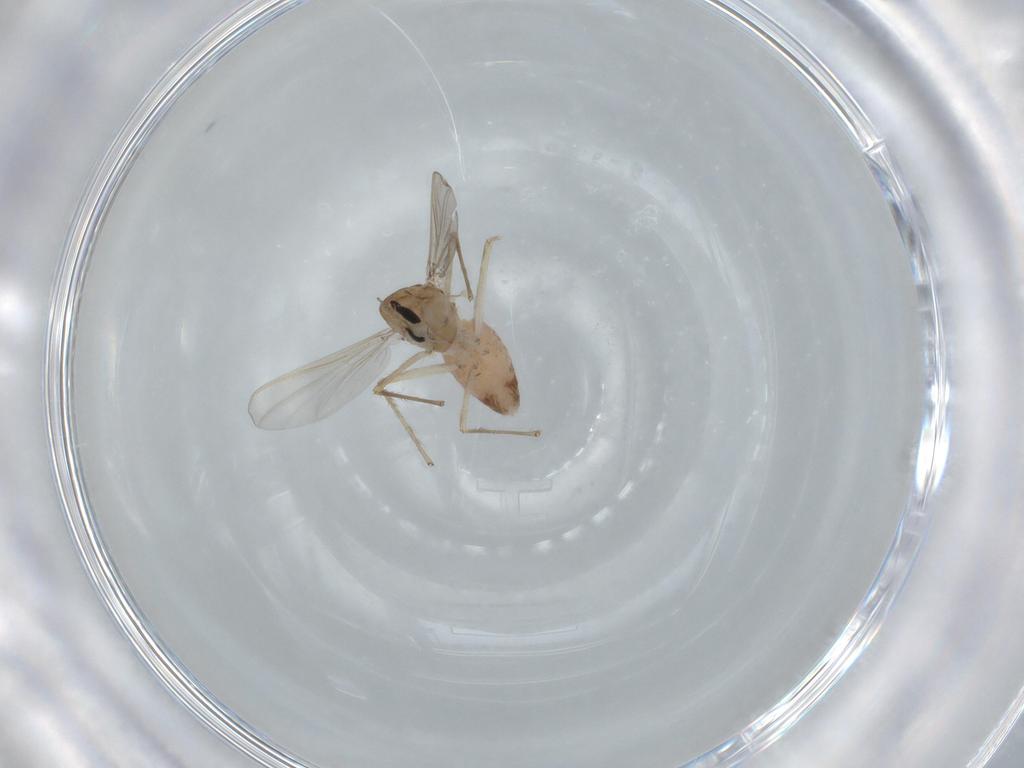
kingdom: Animalia
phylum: Arthropoda
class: Insecta
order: Diptera
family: Chironomidae
